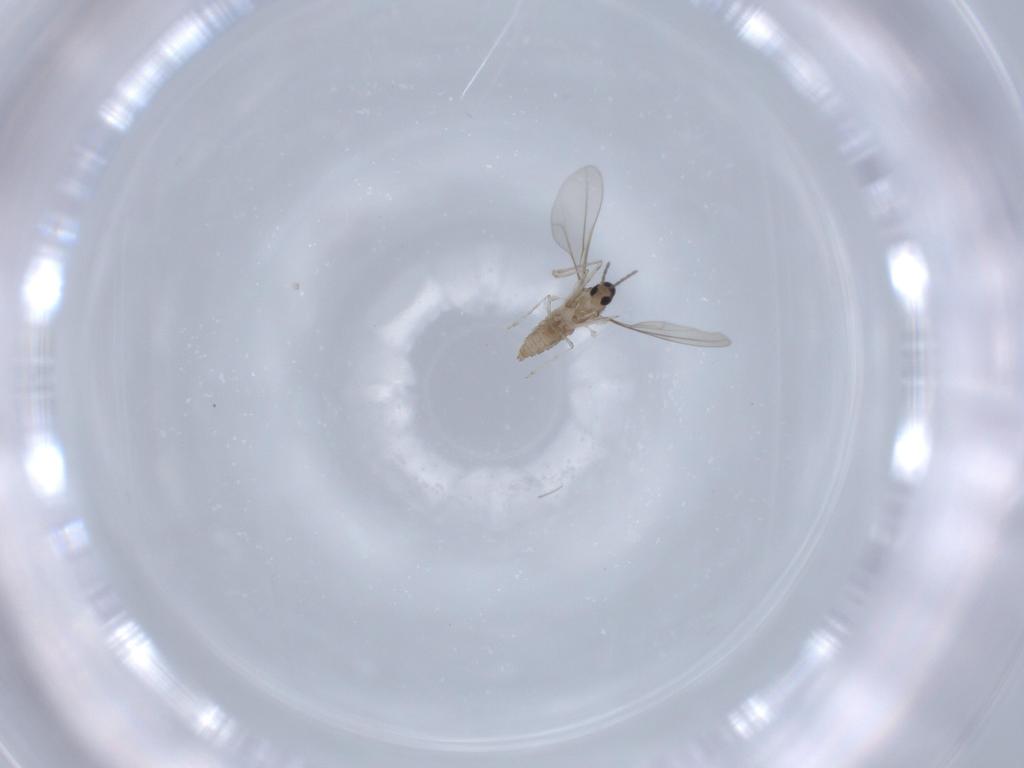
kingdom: Animalia
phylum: Arthropoda
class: Insecta
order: Diptera
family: Cecidomyiidae
